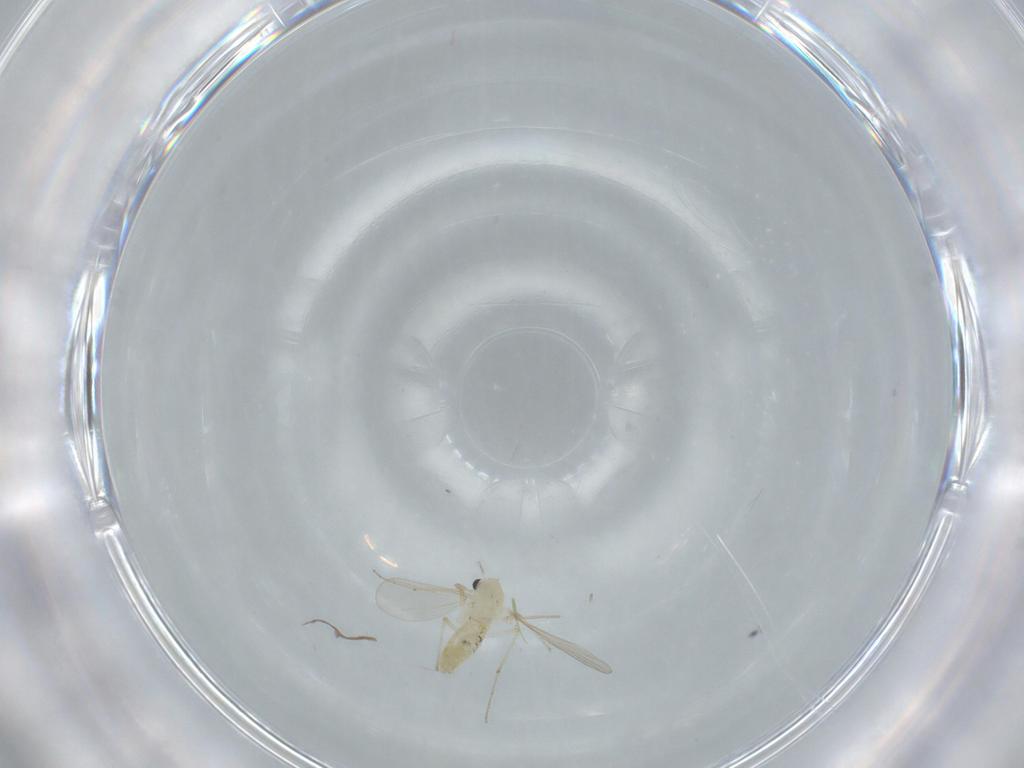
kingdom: Animalia
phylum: Arthropoda
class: Insecta
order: Diptera
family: Chironomidae
